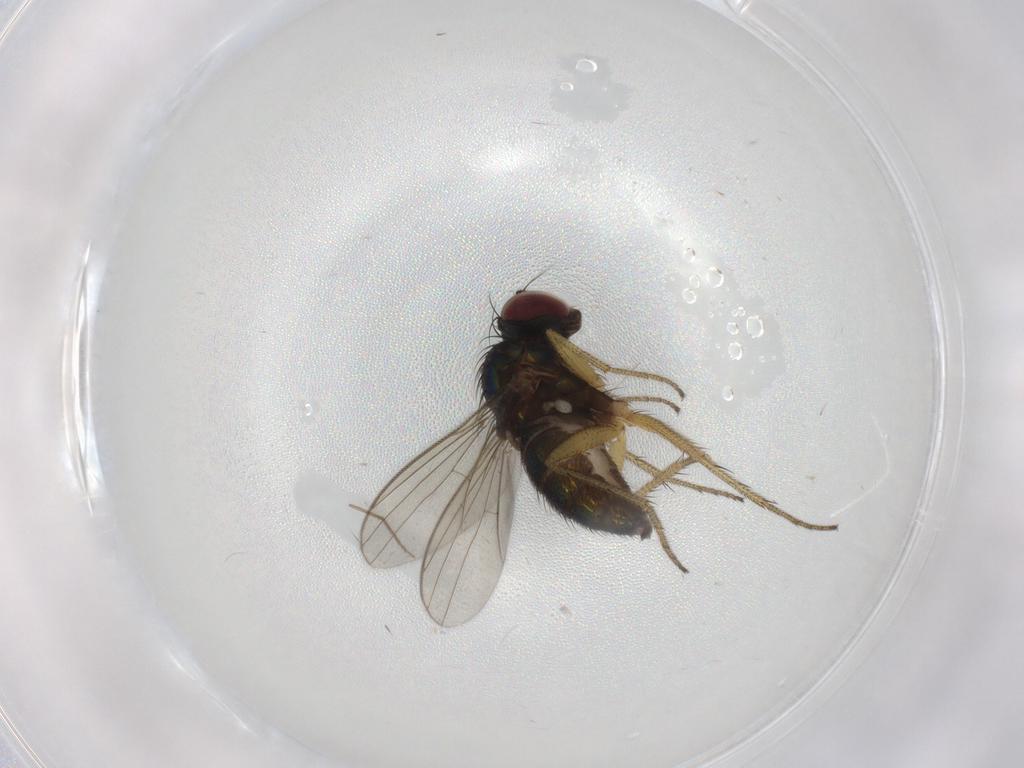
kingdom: Animalia
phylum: Arthropoda
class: Insecta
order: Diptera
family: Chironomidae
